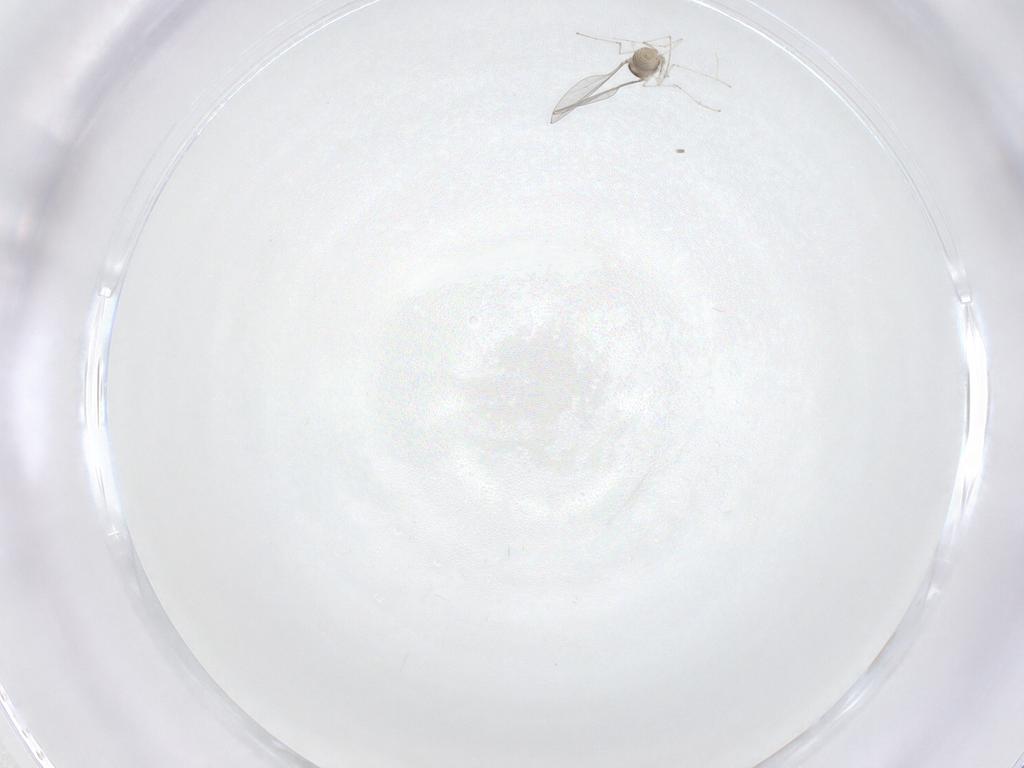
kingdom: Animalia
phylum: Arthropoda
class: Insecta
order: Diptera
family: Cecidomyiidae
